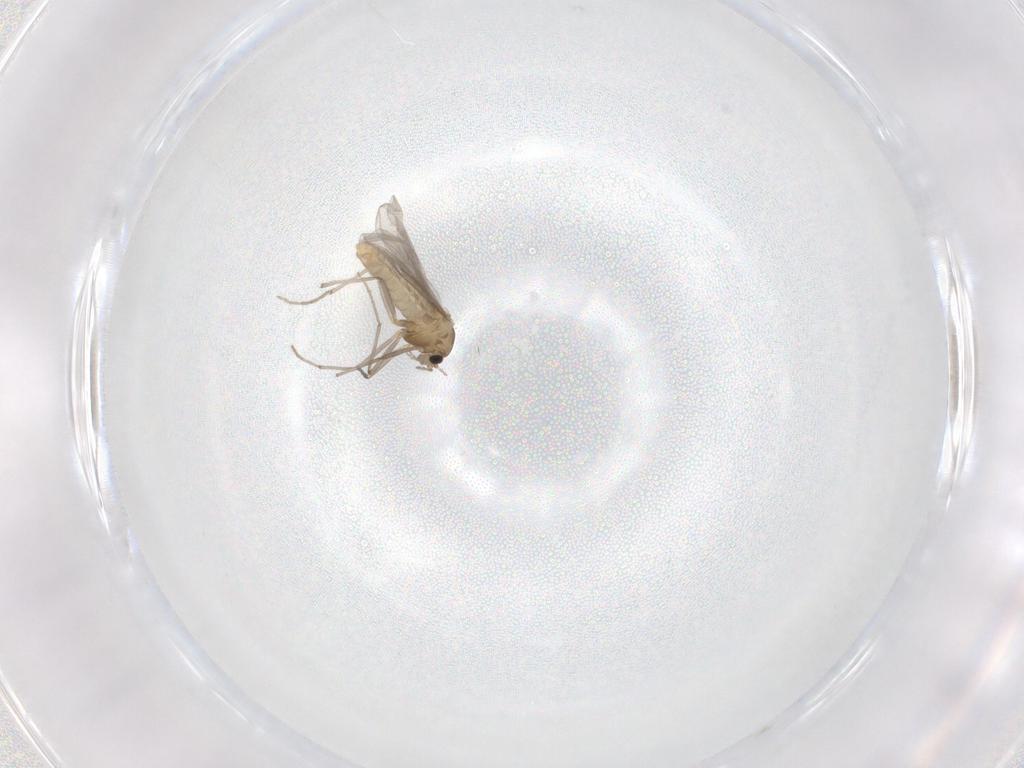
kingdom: Animalia
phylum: Arthropoda
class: Insecta
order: Diptera
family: Chironomidae
